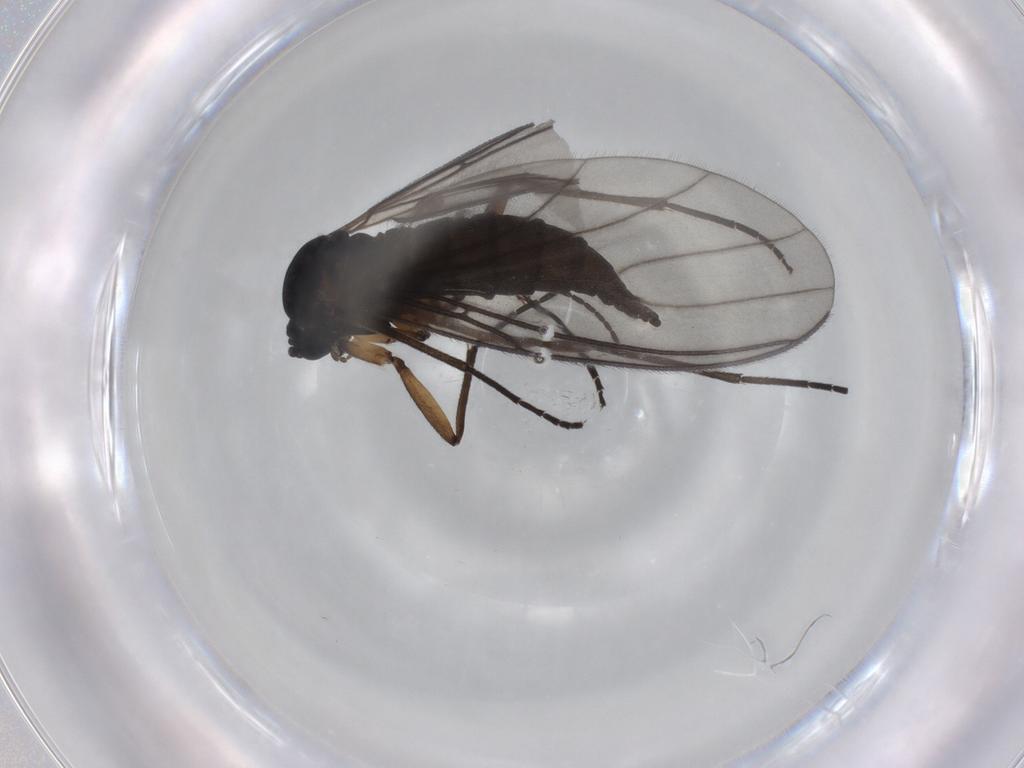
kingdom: Animalia
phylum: Arthropoda
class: Insecta
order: Diptera
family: Sciaridae
